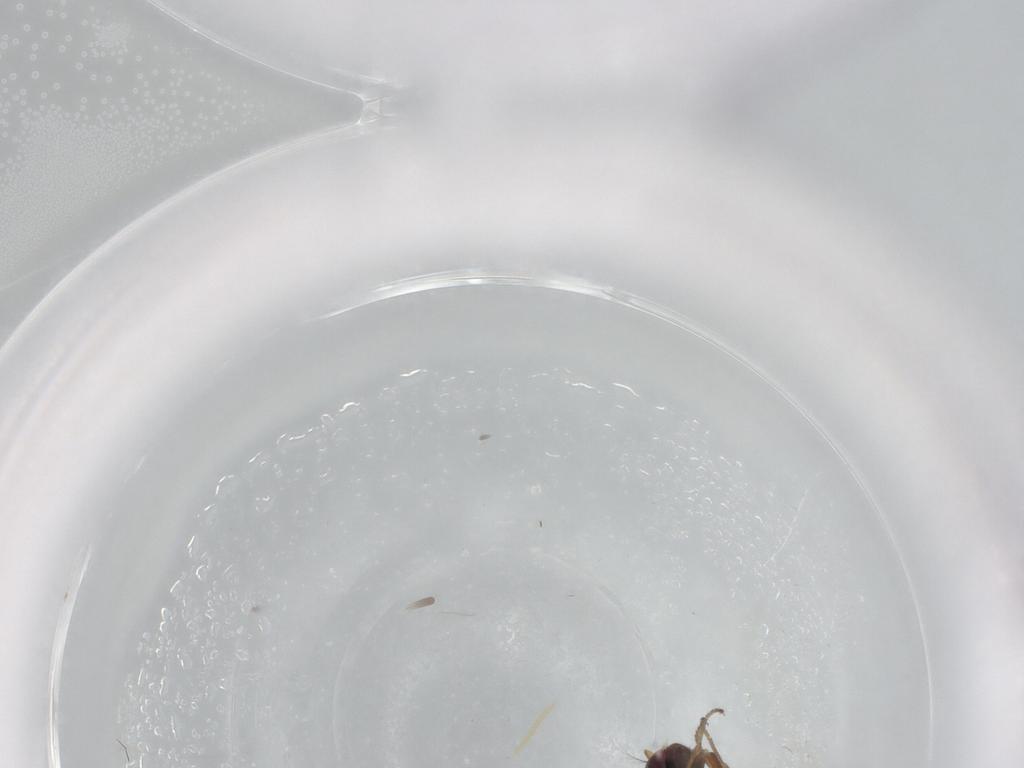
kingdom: Animalia
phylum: Arthropoda
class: Insecta
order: Diptera
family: Ephydridae
